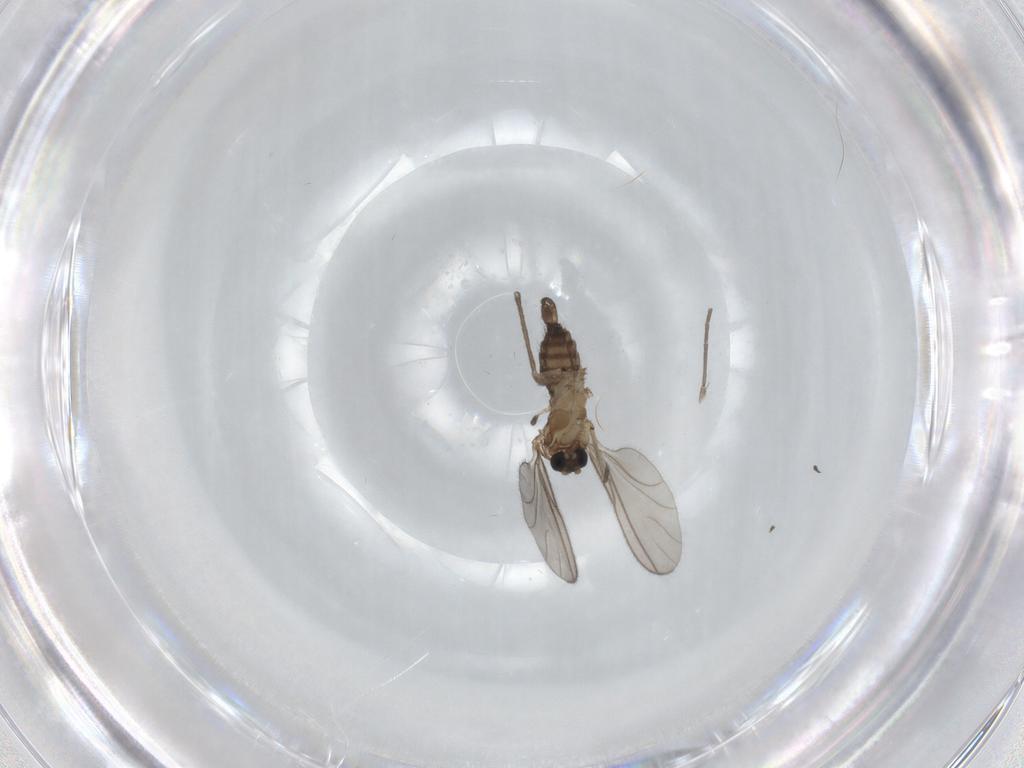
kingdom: Animalia
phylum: Arthropoda
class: Insecta
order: Diptera
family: Sciaridae
